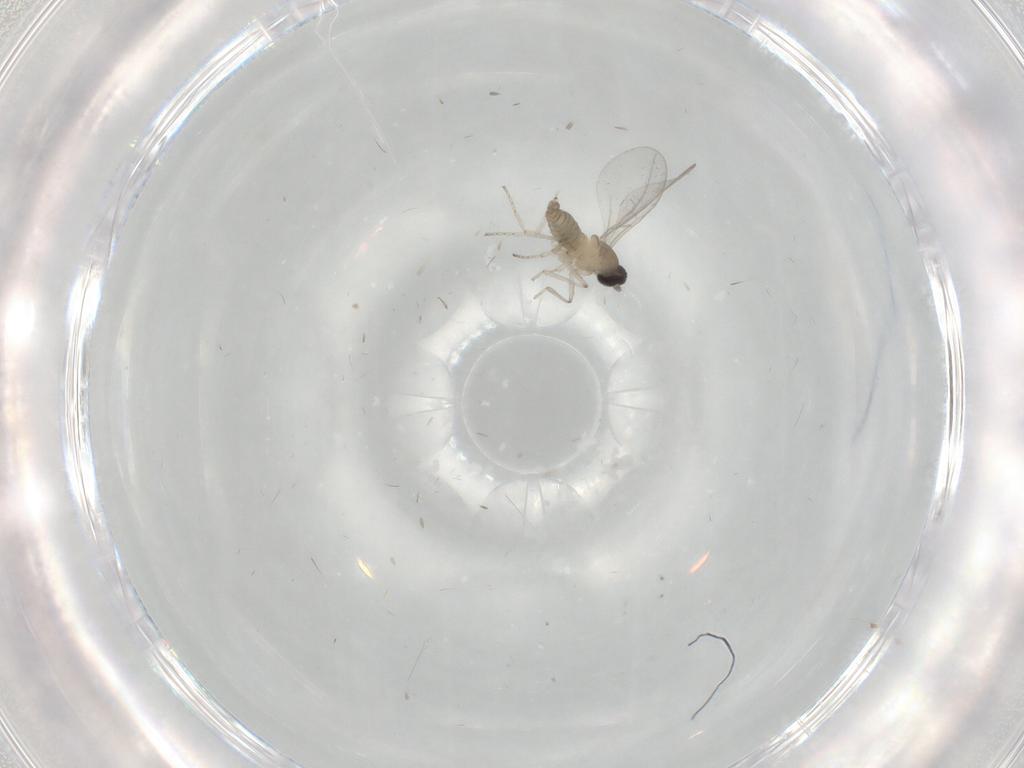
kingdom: Animalia
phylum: Arthropoda
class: Insecta
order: Diptera
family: Cecidomyiidae
